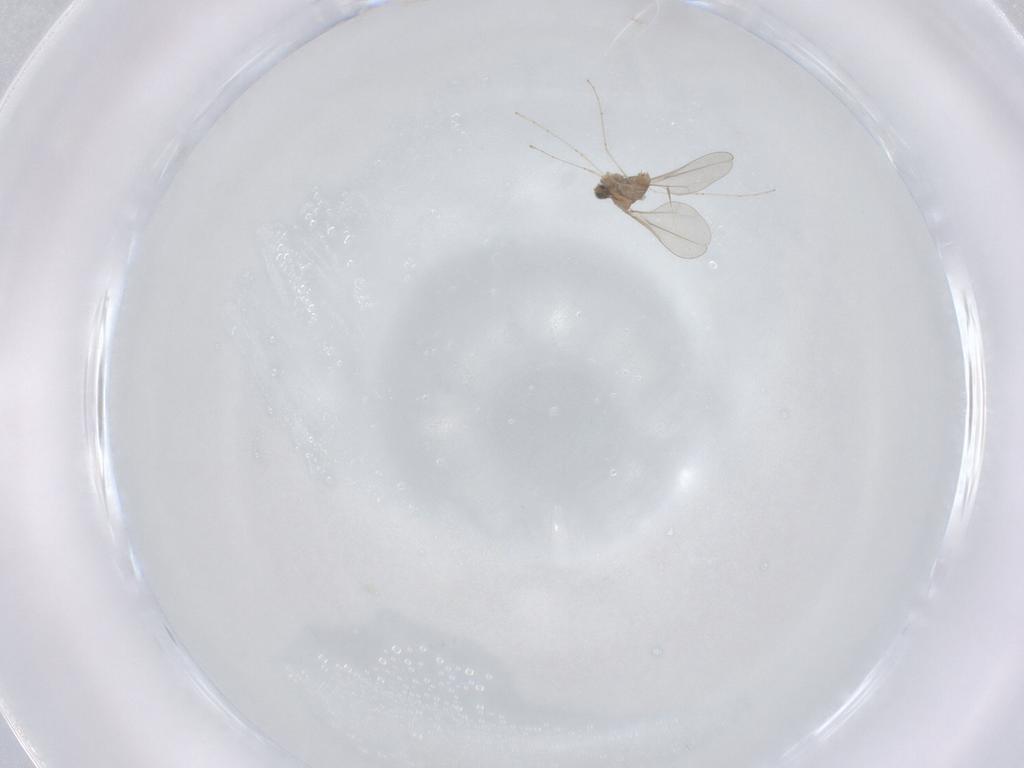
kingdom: Animalia
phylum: Arthropoda
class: Insecta
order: Diptera
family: Cecidomyiidae
